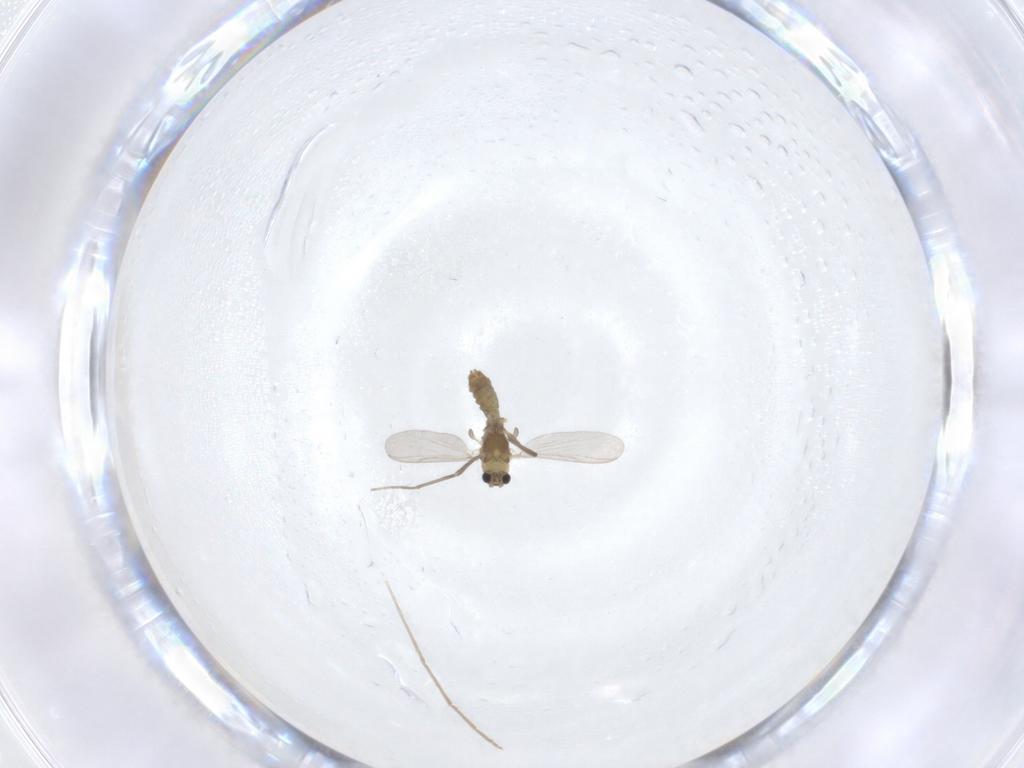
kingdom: Animalia
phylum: Arthropoda
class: Insecta
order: Diptera
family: Chironomidae
